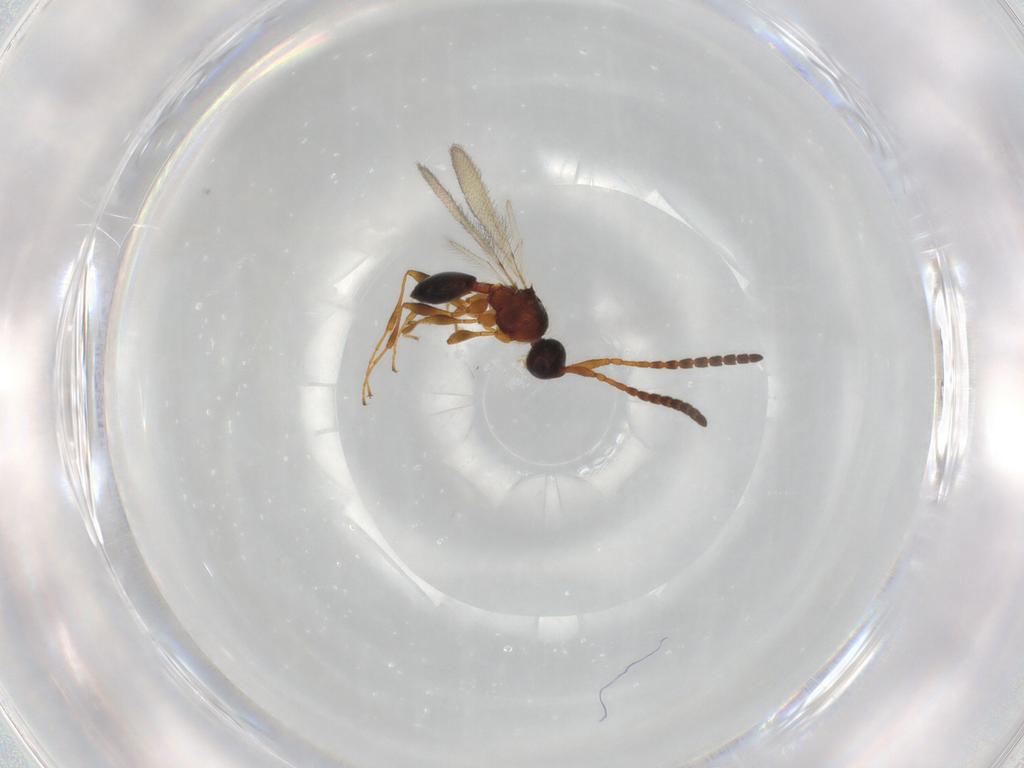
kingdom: Animalia
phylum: Arthropoda
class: Insecta
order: Hymenoptera
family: Diapriidae
